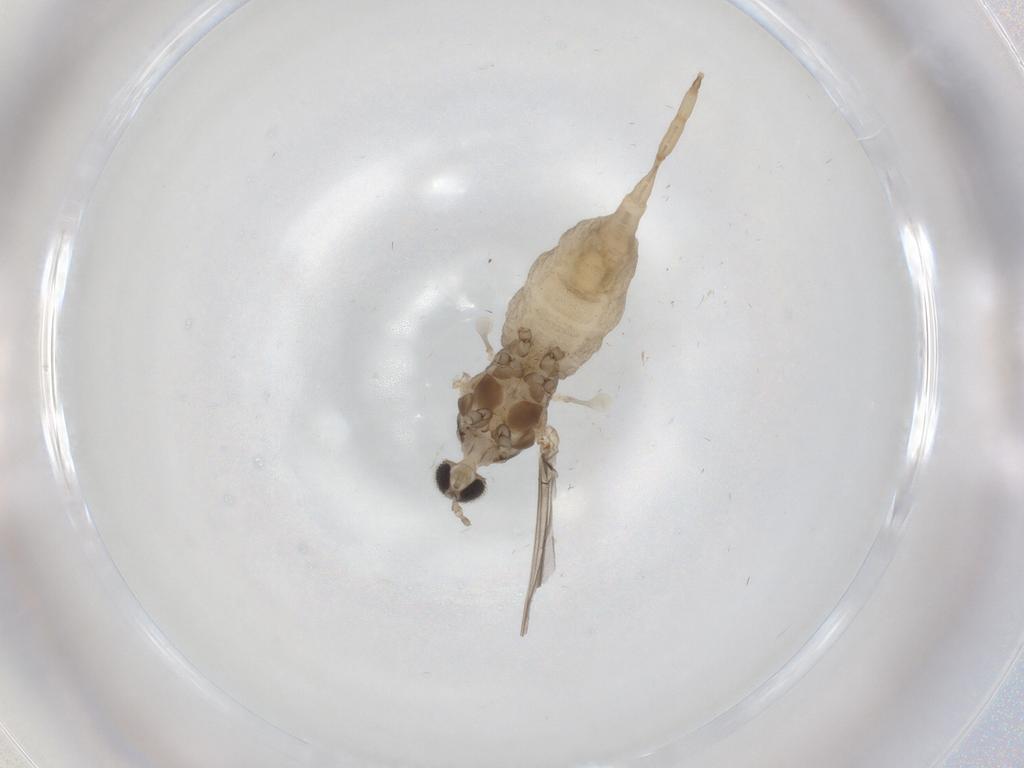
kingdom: Animalia
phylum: Arthropoda
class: Insecta
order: Diptera
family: Cecidomyiidae
